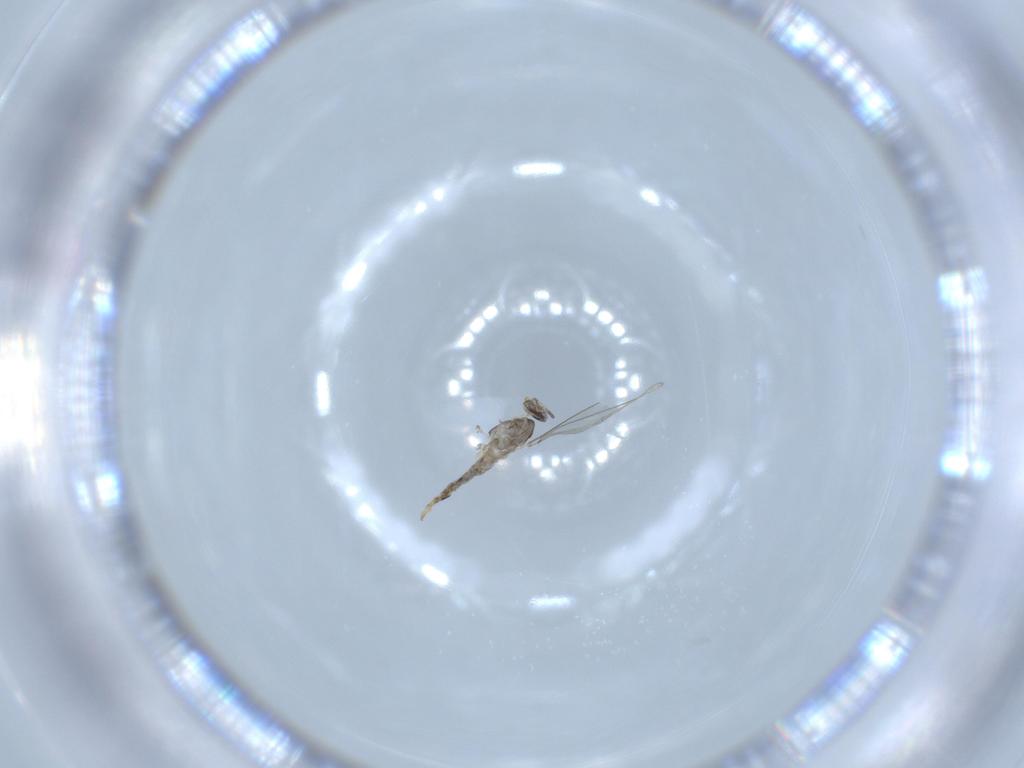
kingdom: Animalia
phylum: Arthropoda
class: Insecta
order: Diptera
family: Cecidomyiidae
